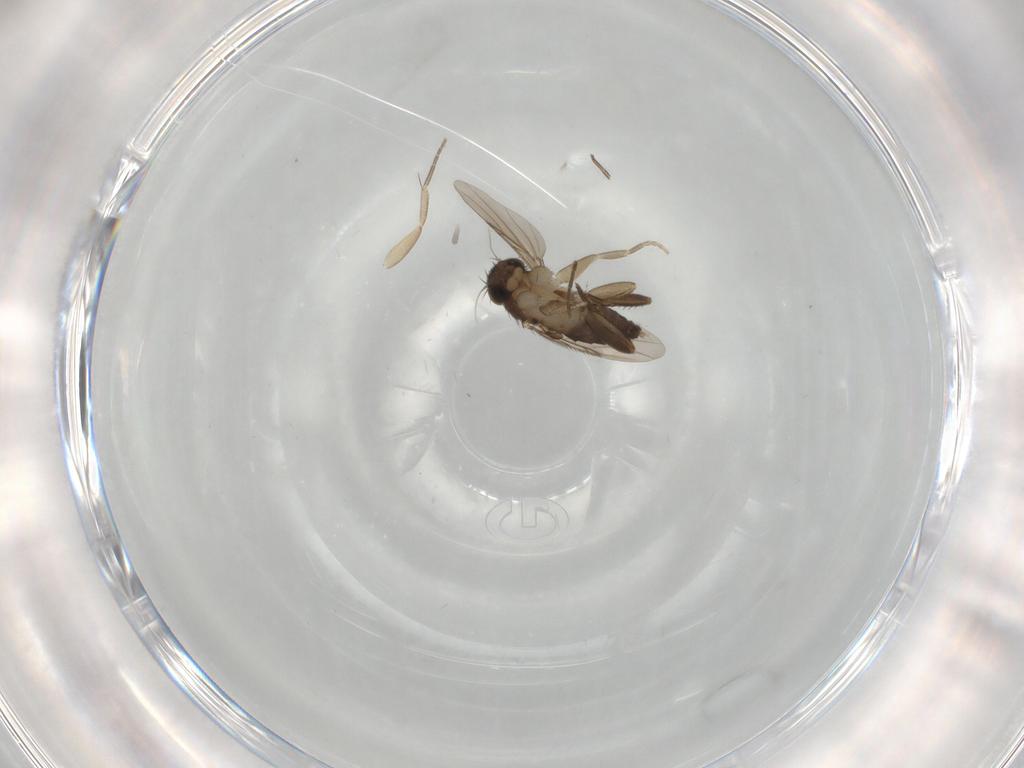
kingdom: Animalia
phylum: Arthropoda
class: Insecta
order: Diptera
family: Phoridae
